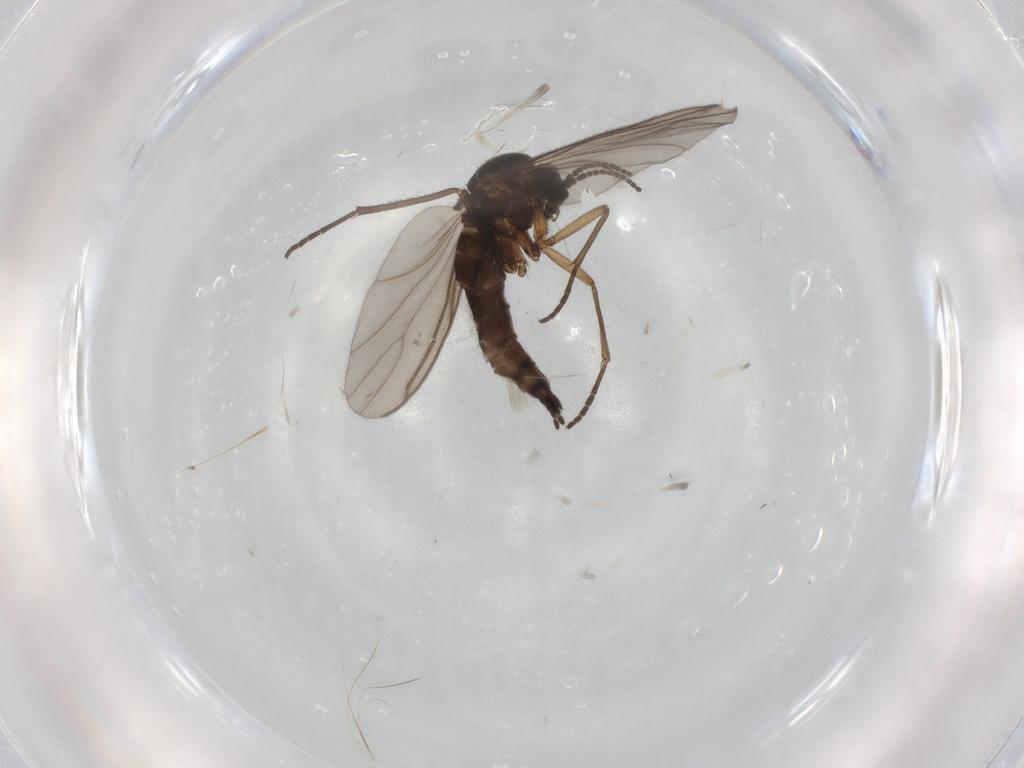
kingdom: Animalia
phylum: Arthropoda
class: Insecta
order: Diptera
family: Sciaridae
